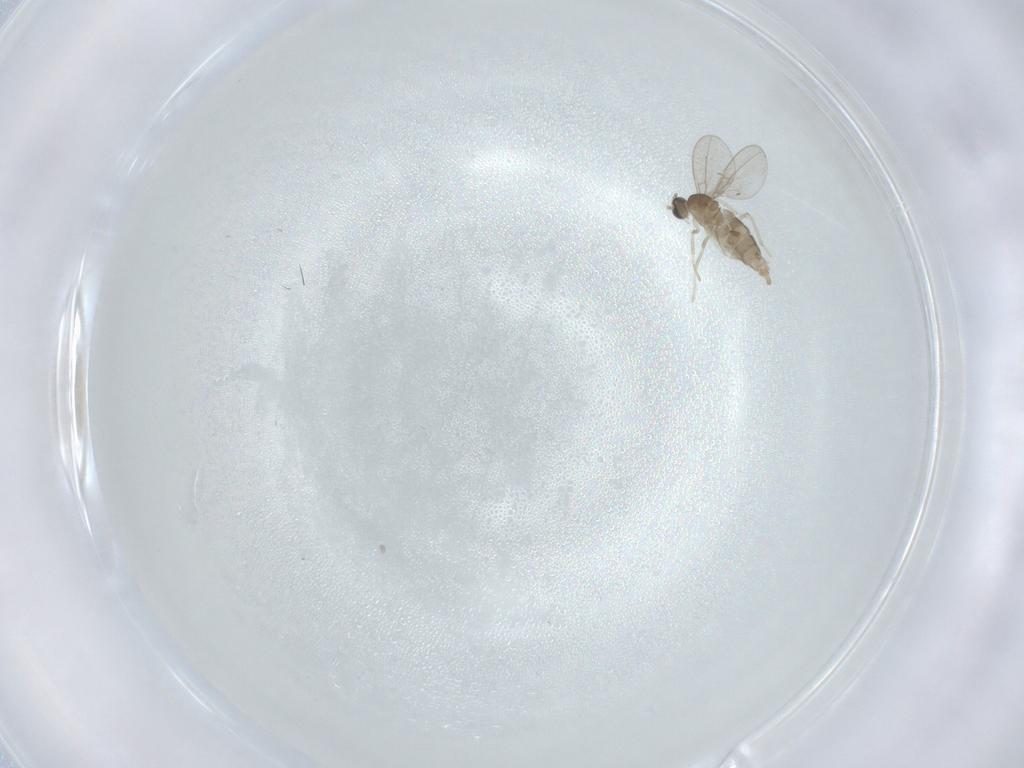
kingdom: Animalia
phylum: Arthropoda
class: Insecta
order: Diptera
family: Cecidomyiidae
